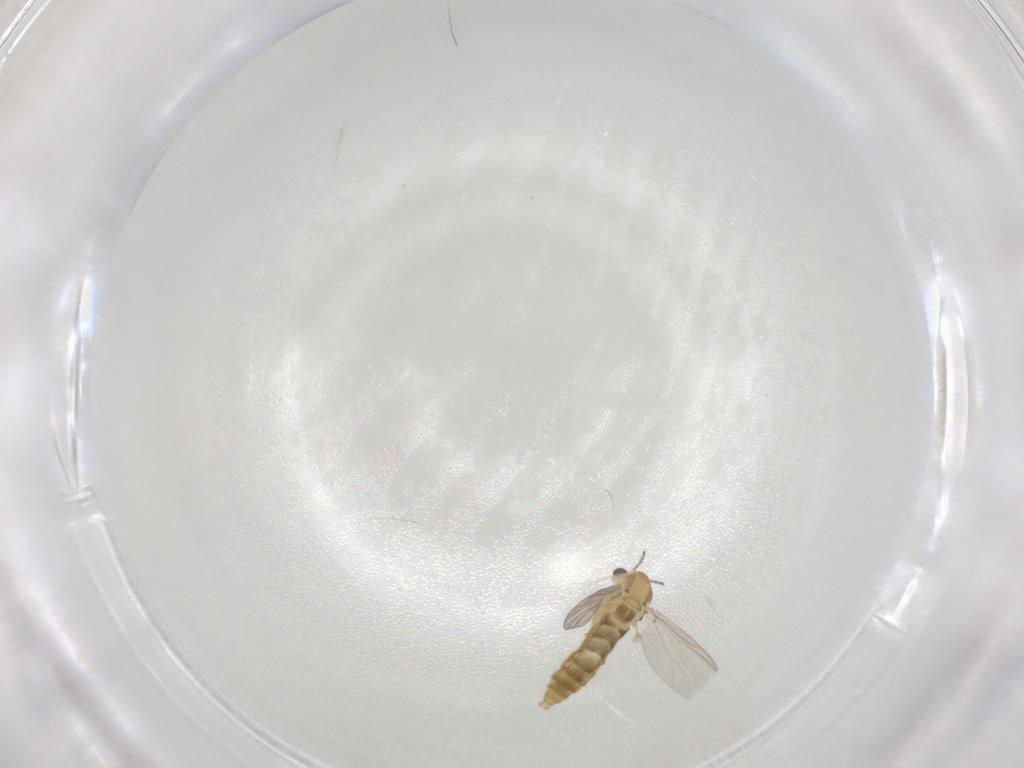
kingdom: Animalia
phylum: Arthropoda
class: Insecta
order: Diptera
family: Chironomidae
